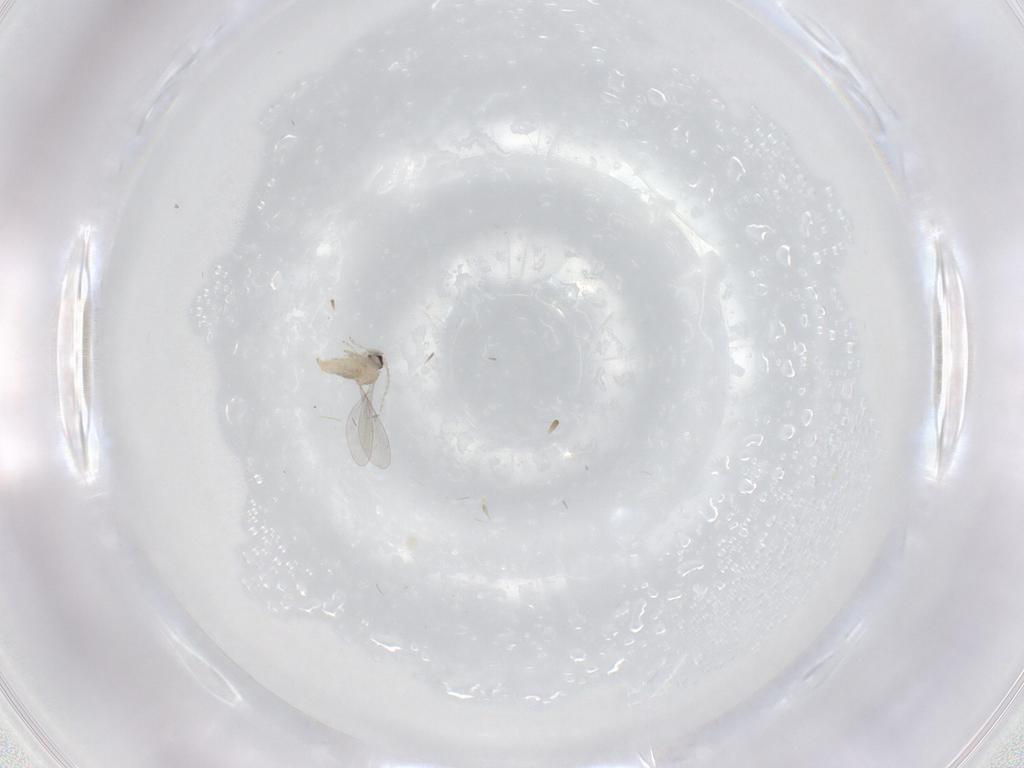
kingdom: Animalia
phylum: Arthropoda
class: Insecta
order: Diptera
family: Cecidomyiidae
